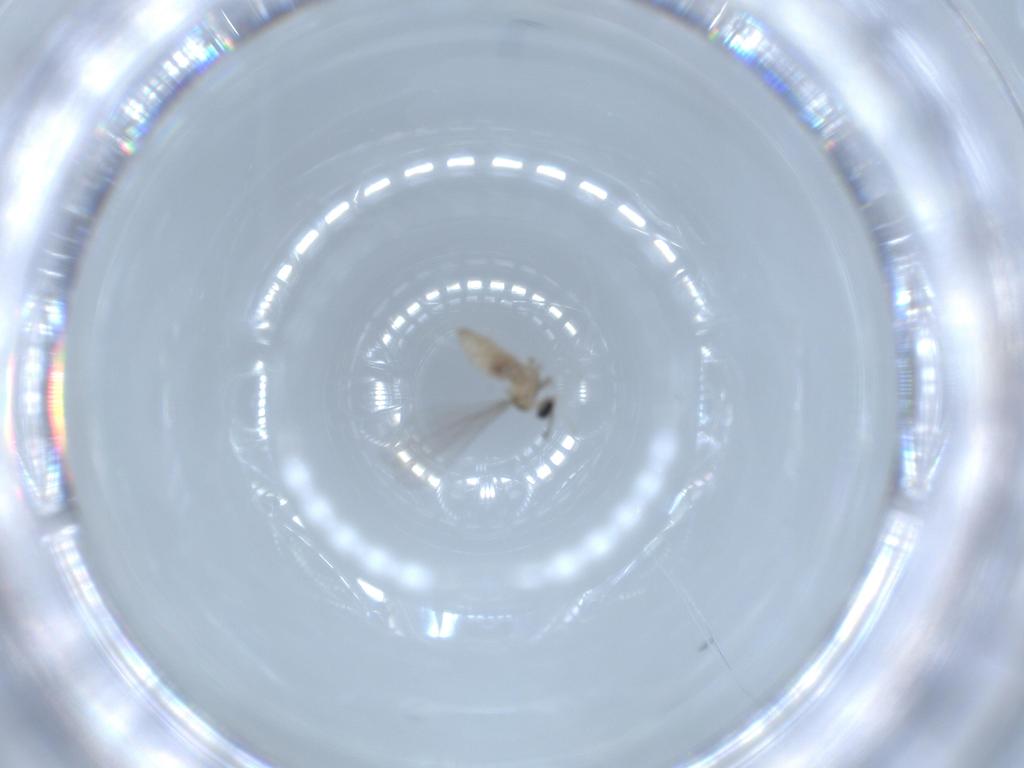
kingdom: Animalia
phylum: Arthropoda
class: Insecta
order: Diptera
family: Cecidomyiidae
